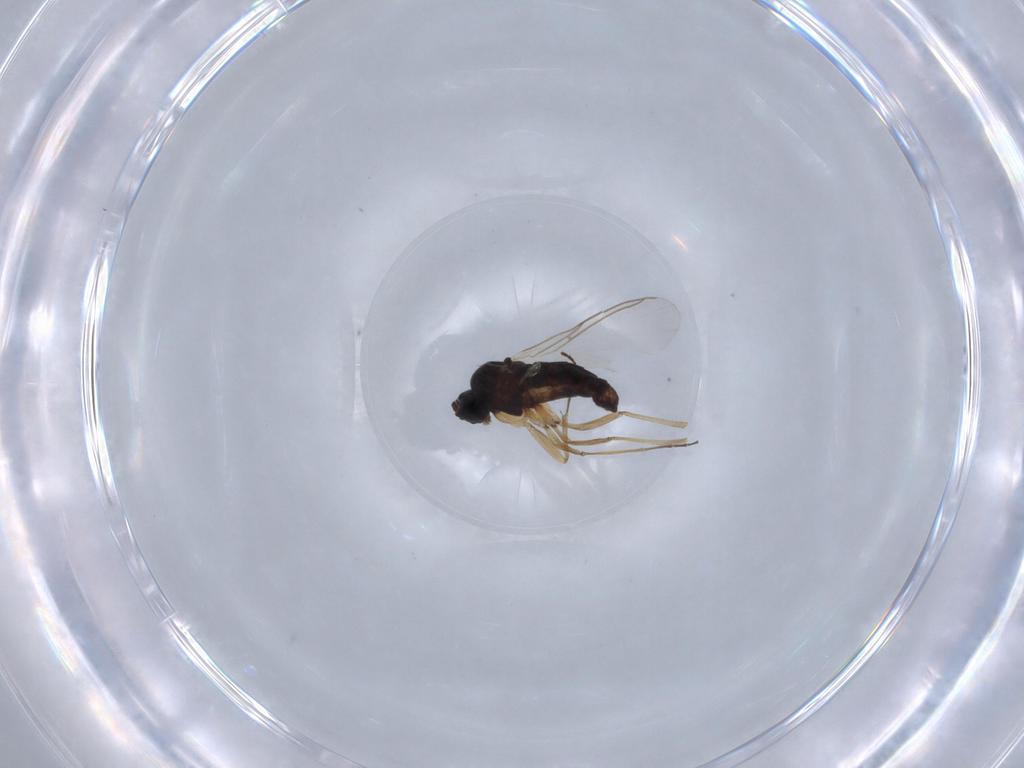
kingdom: Animalia
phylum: Arthropoda
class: Insecta
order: Diptera
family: Sciaridae
